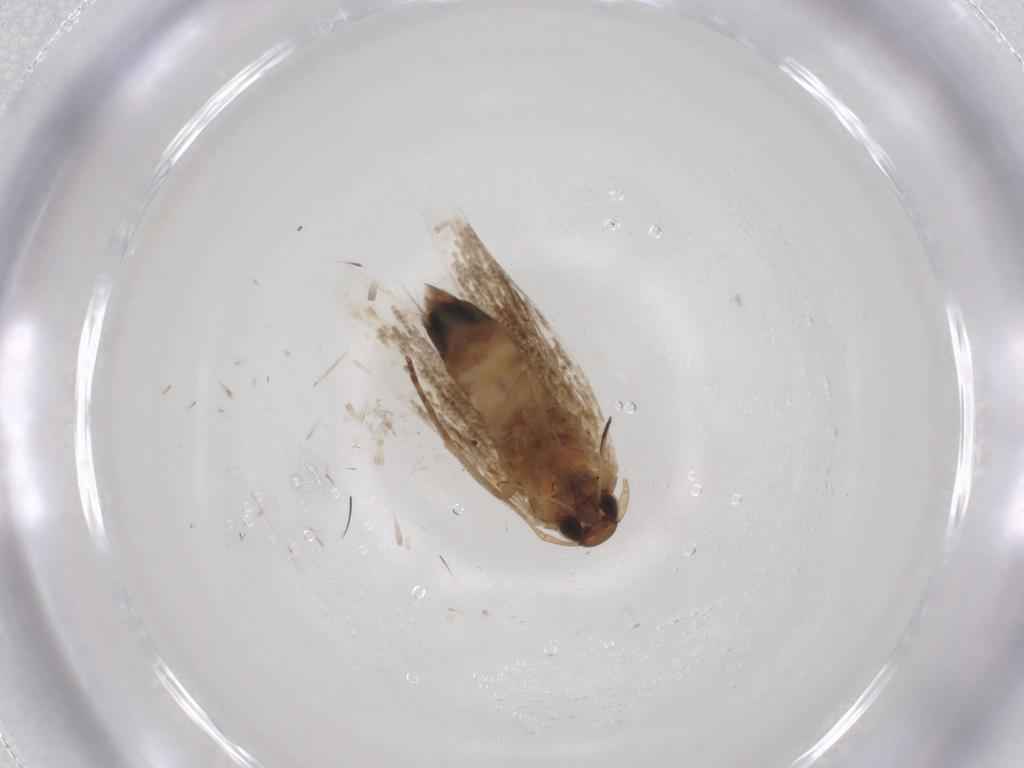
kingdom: Animalia
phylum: Arthropoda
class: Insecta
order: Lepidoptera
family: Noctuidae
